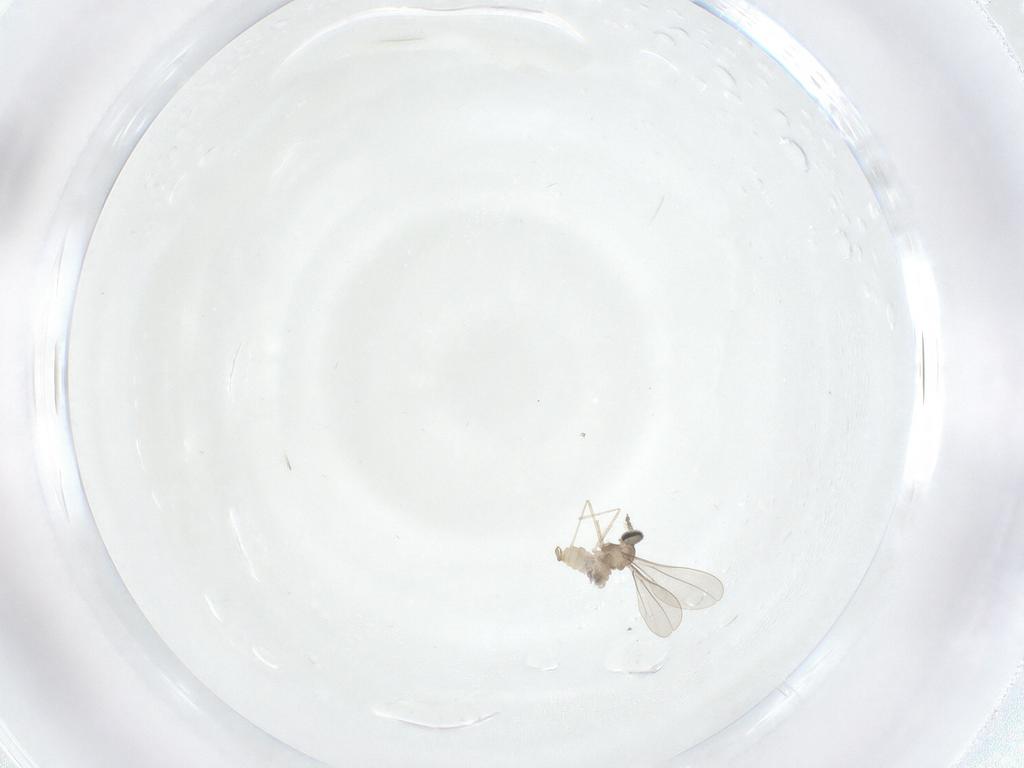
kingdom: Animalia
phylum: Arthropoda
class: Insecta
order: Diptera
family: Cecidomyiidae
